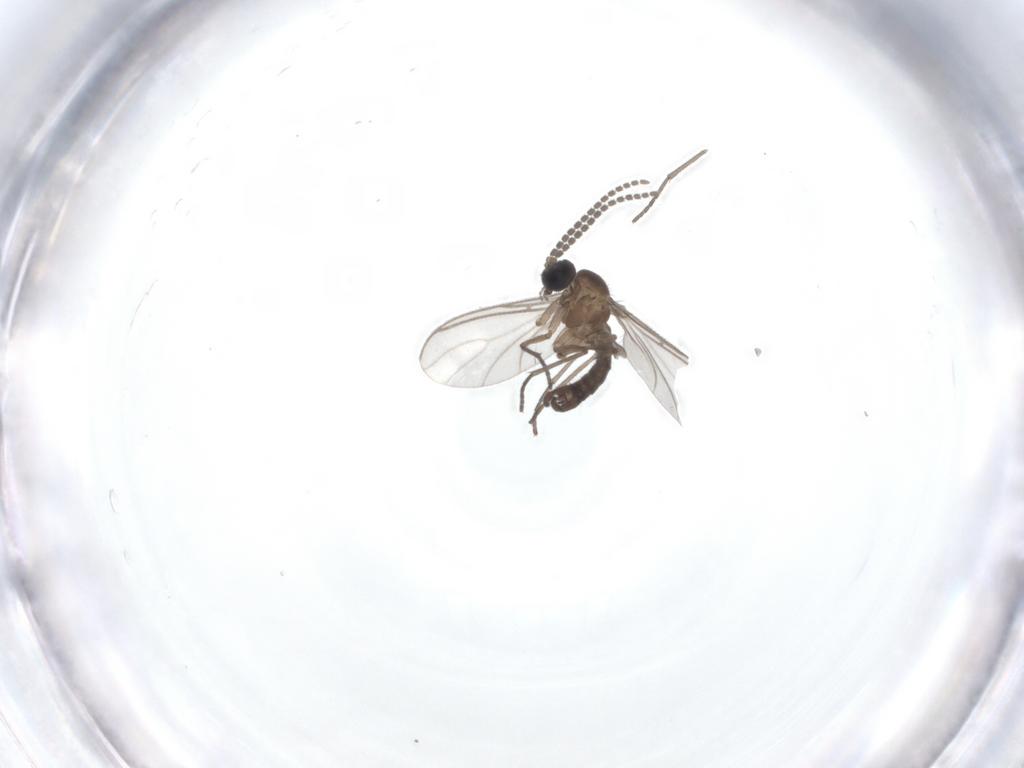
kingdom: Animalia
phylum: Arthropoda
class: Insecta
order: Diptera
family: Sciaridae
